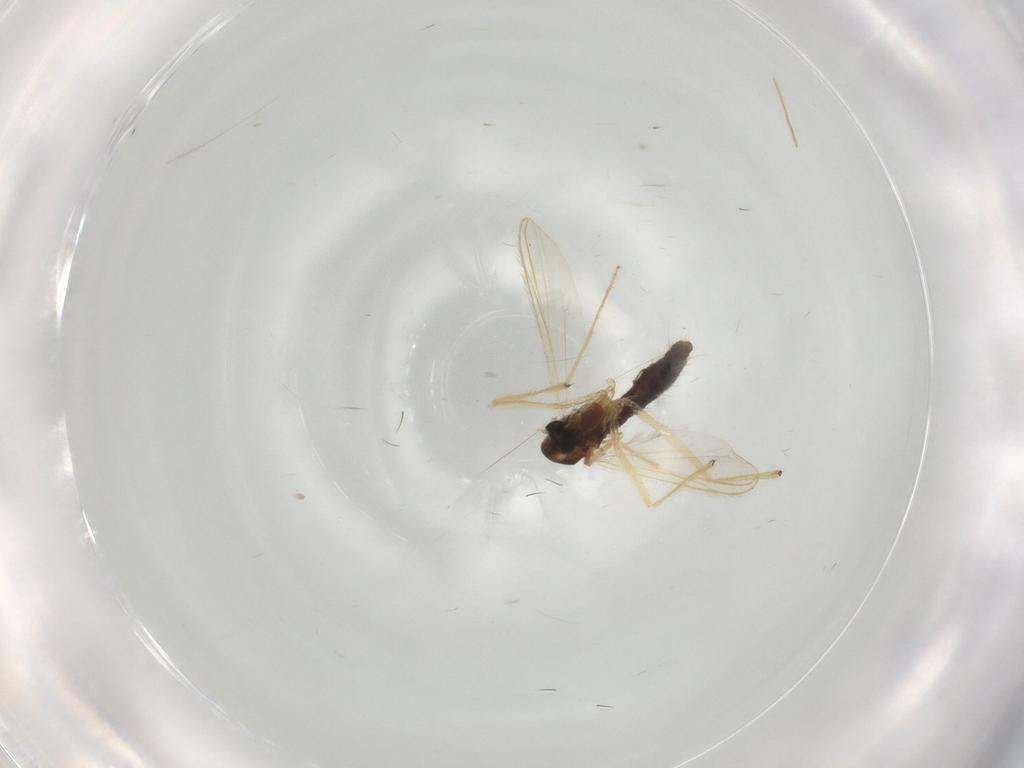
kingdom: Animalia
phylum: Arthropoda
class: Insecta
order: Diptera
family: Chironomidae
